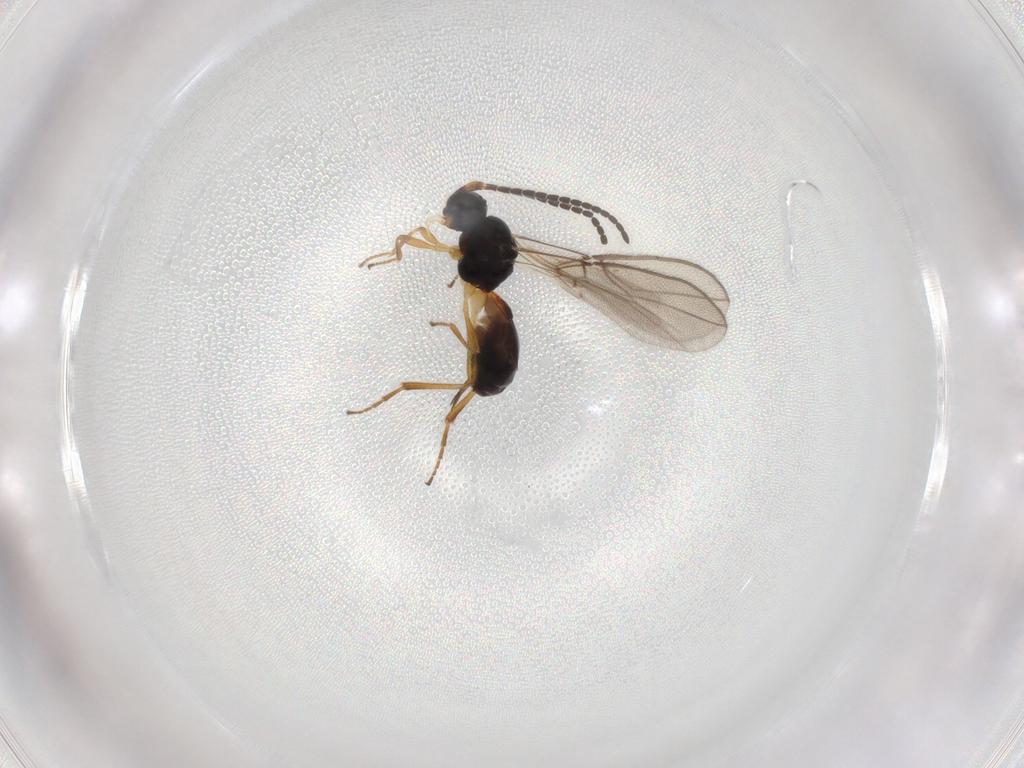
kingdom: Animalia
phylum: Arthropoda
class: Insecta
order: Hymenoptera
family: Braconidae
